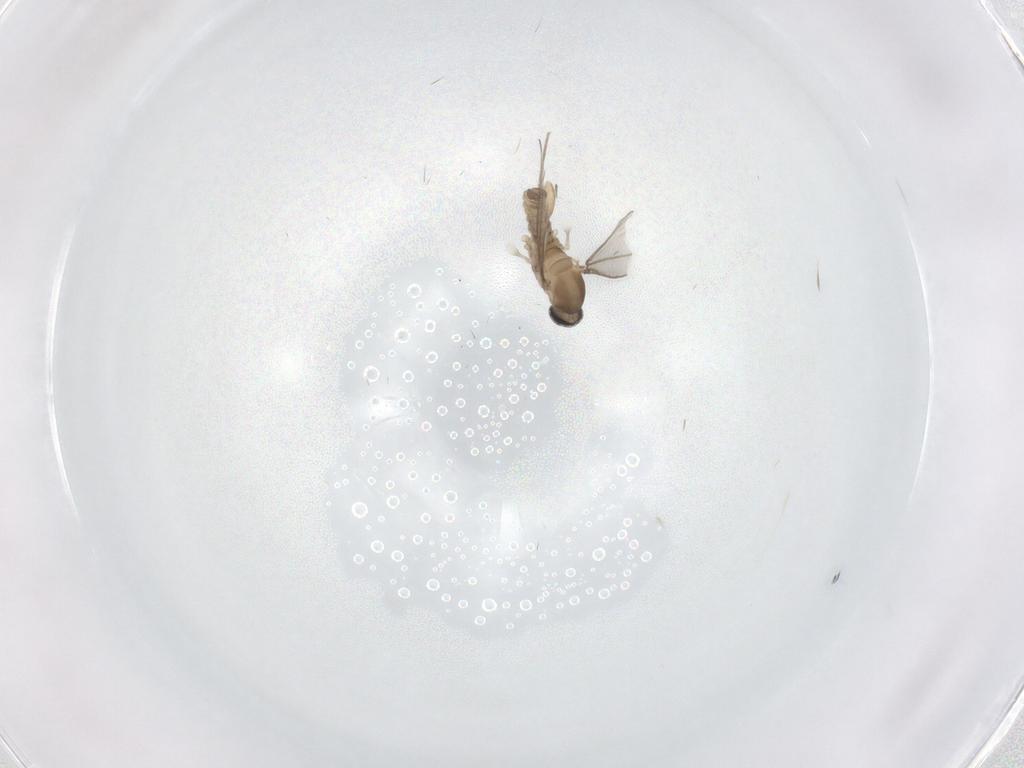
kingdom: Animalia
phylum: Arthropoda
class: Insecta
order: Diptera
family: Phoridae
